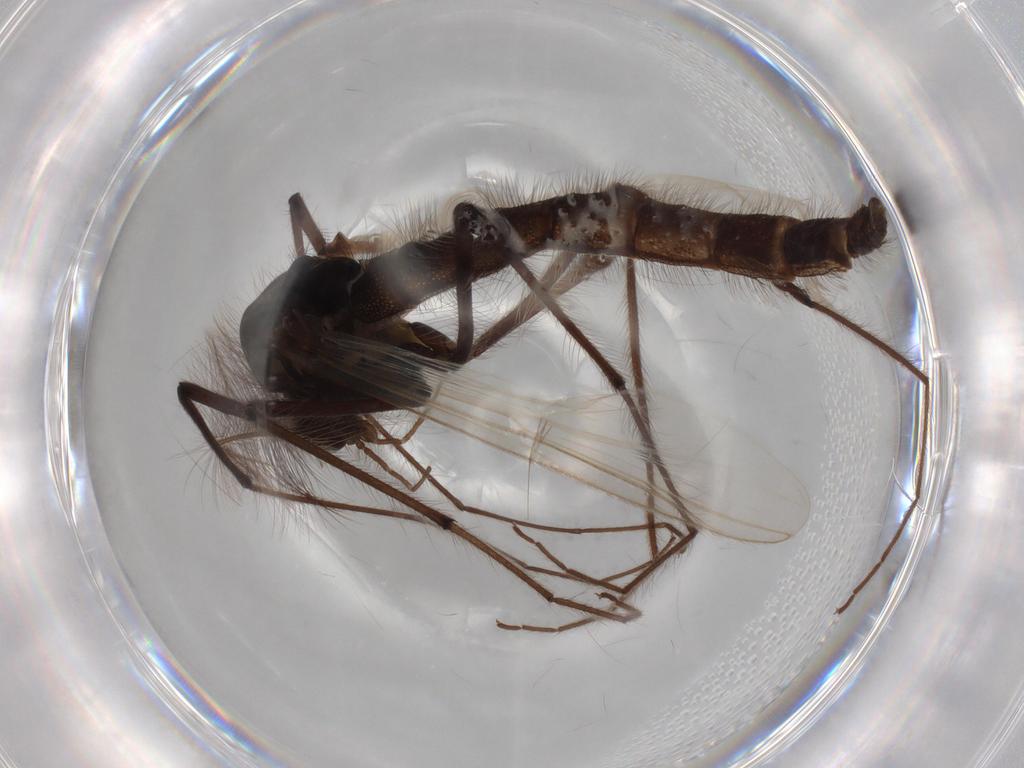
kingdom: Animalia
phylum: Arthropoda
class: Insecta
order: Diptera
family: Chironomidae
